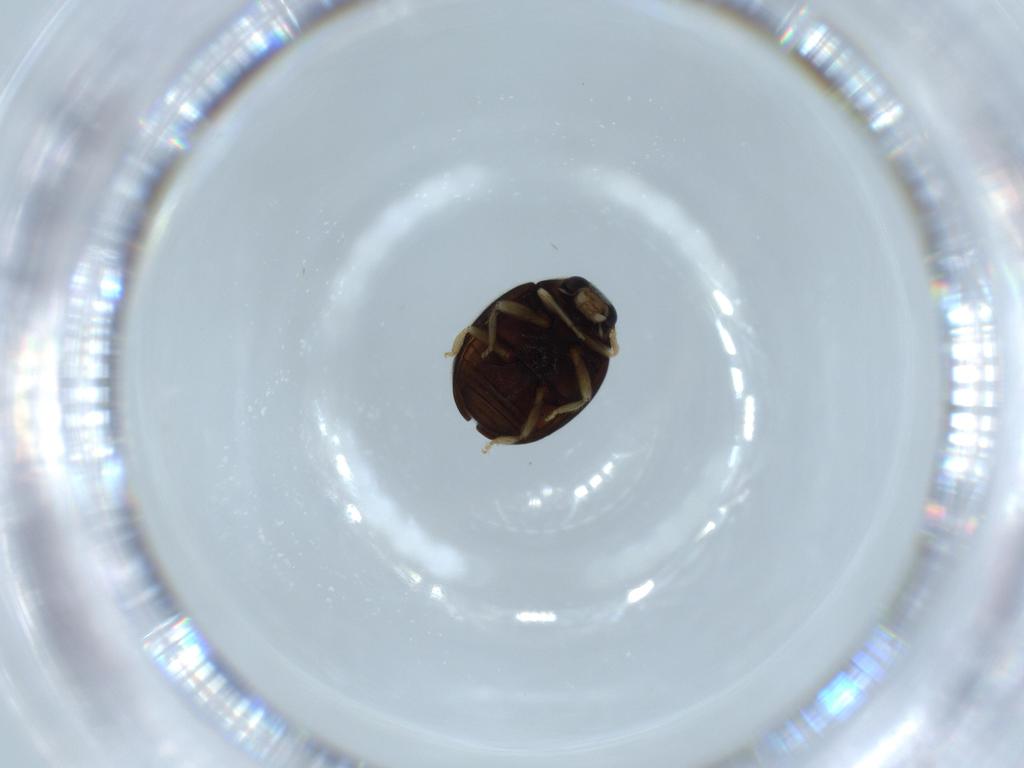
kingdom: Animalia
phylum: Arthropoda
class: Insecta
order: Coleoptera
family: Coccinellidae
